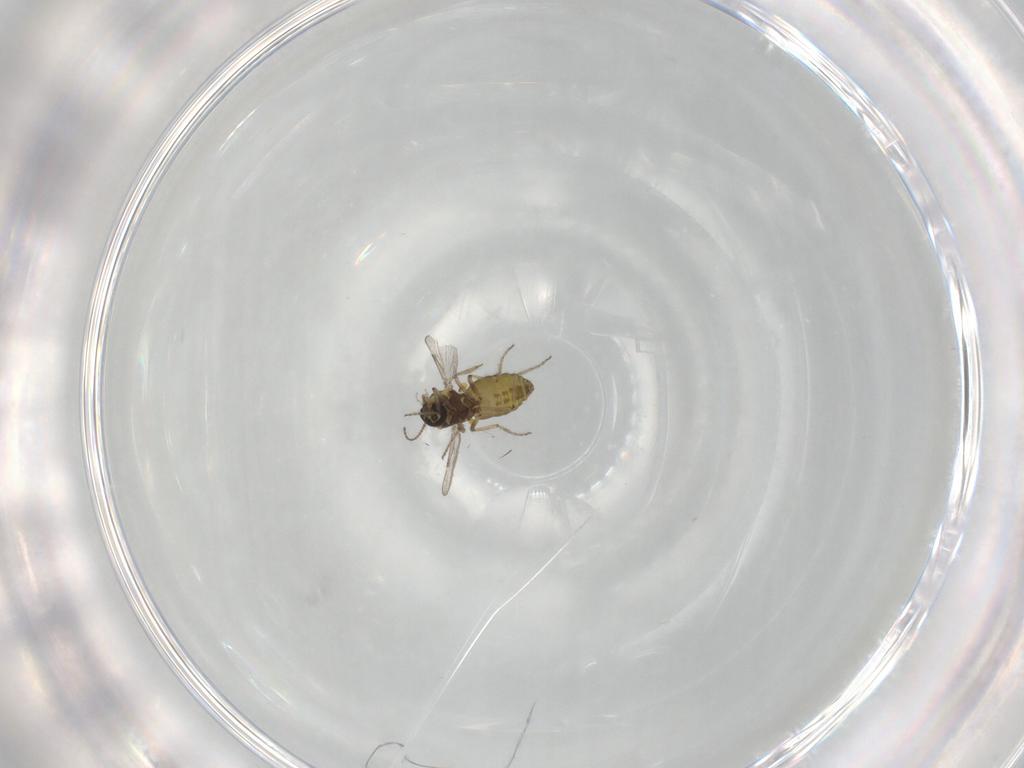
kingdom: Animalia
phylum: Arthropoda
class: Insecta
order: Diptera
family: Ceratopogonidae
